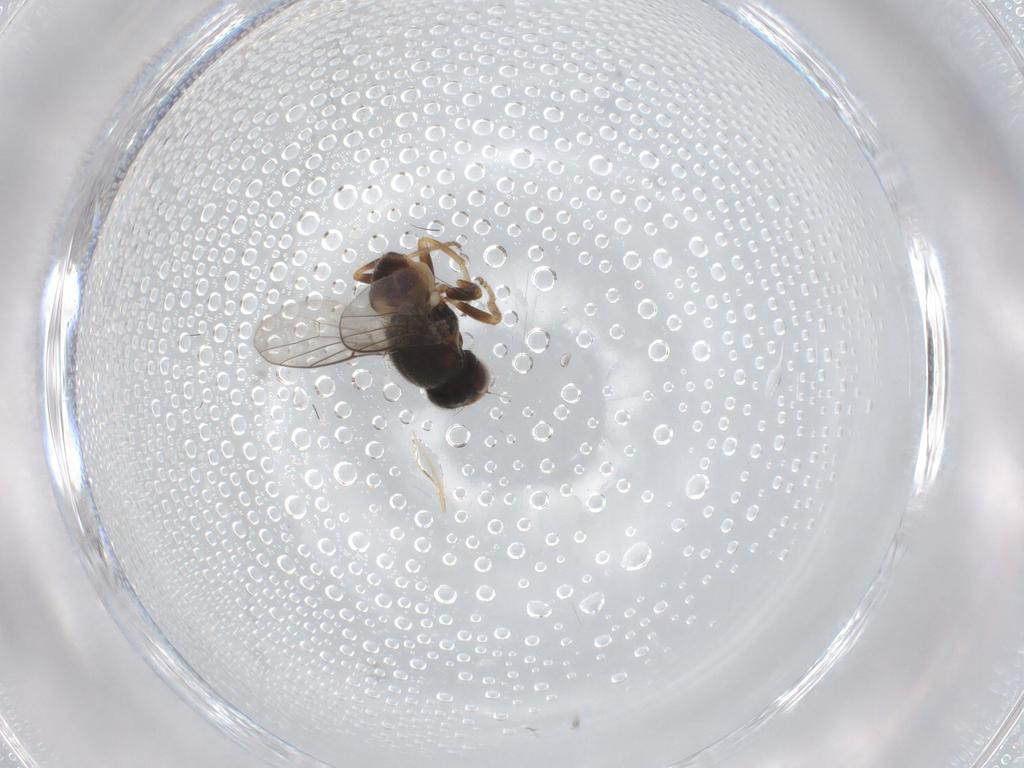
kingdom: Animalia
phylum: Arthropoda
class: Insecta
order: Diptera
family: Chloropidae
